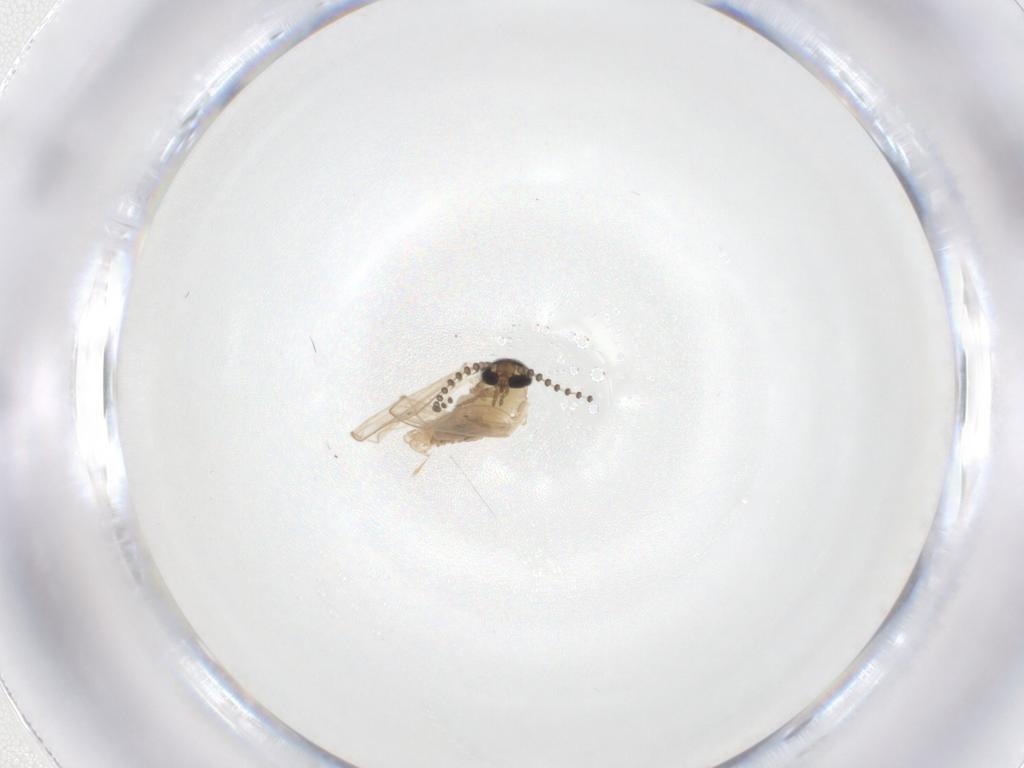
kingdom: Animalia
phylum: Arthropoda
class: Insecta
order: Diptera
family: Psychodidae
